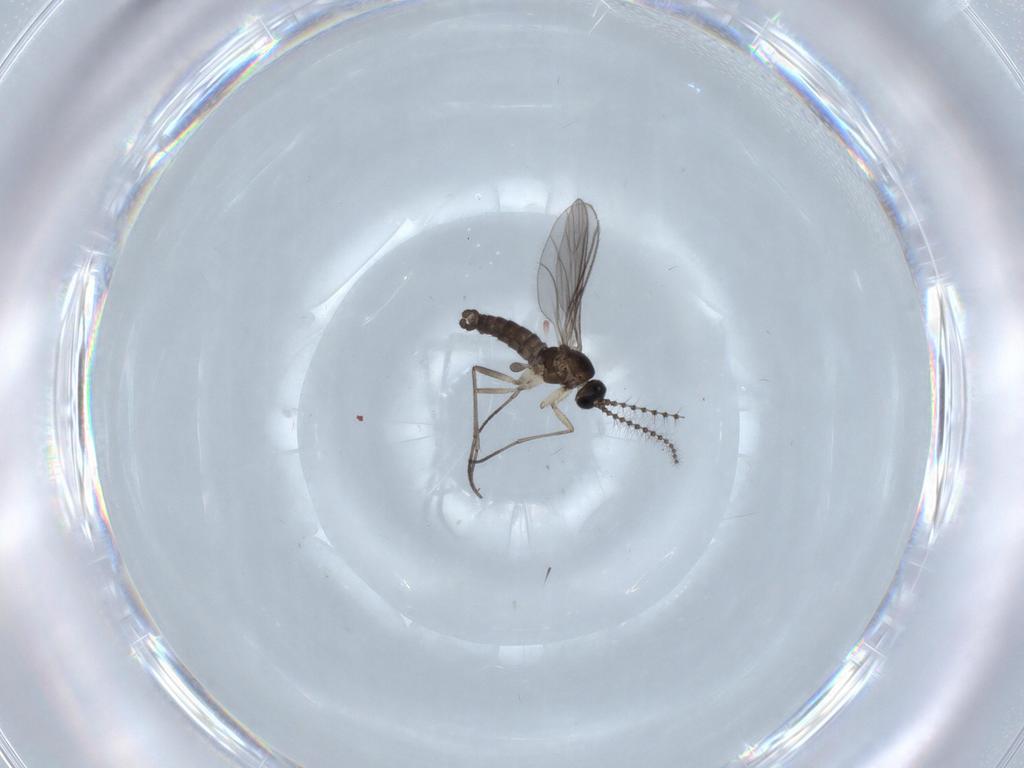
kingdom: Animalia
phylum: Arthropoda
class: Insecta
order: Diptera
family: Sciaridae
